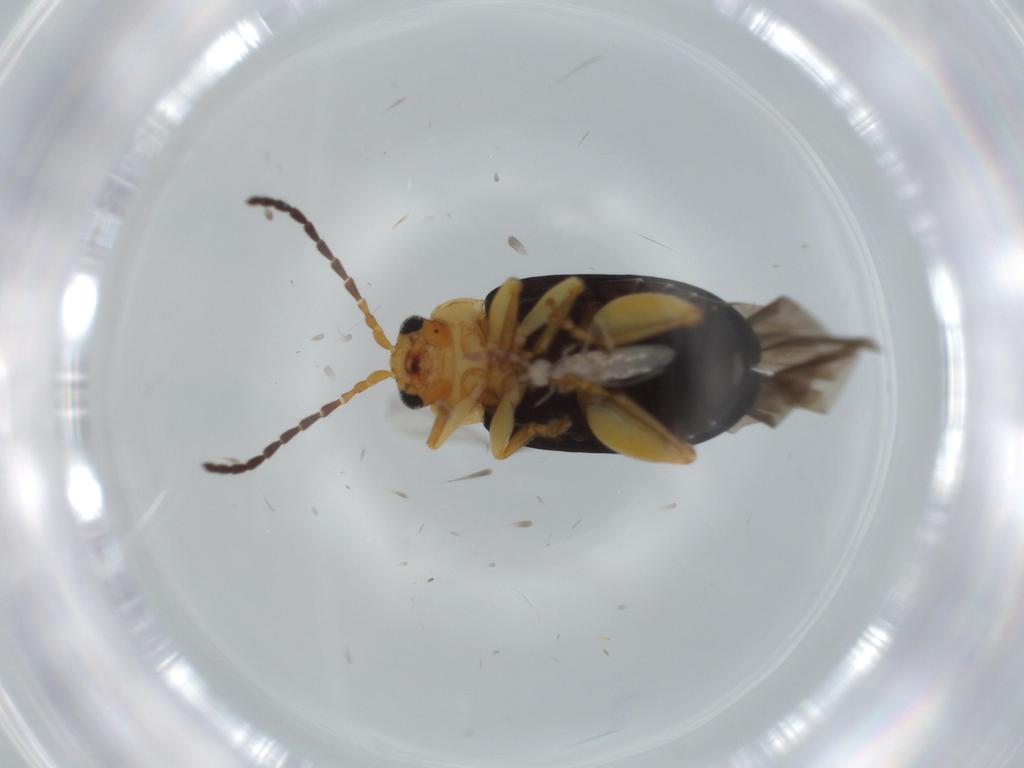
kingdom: Animalia
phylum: Arthropoda
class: Insecta
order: Coleoptera
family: Chrysomelidae
